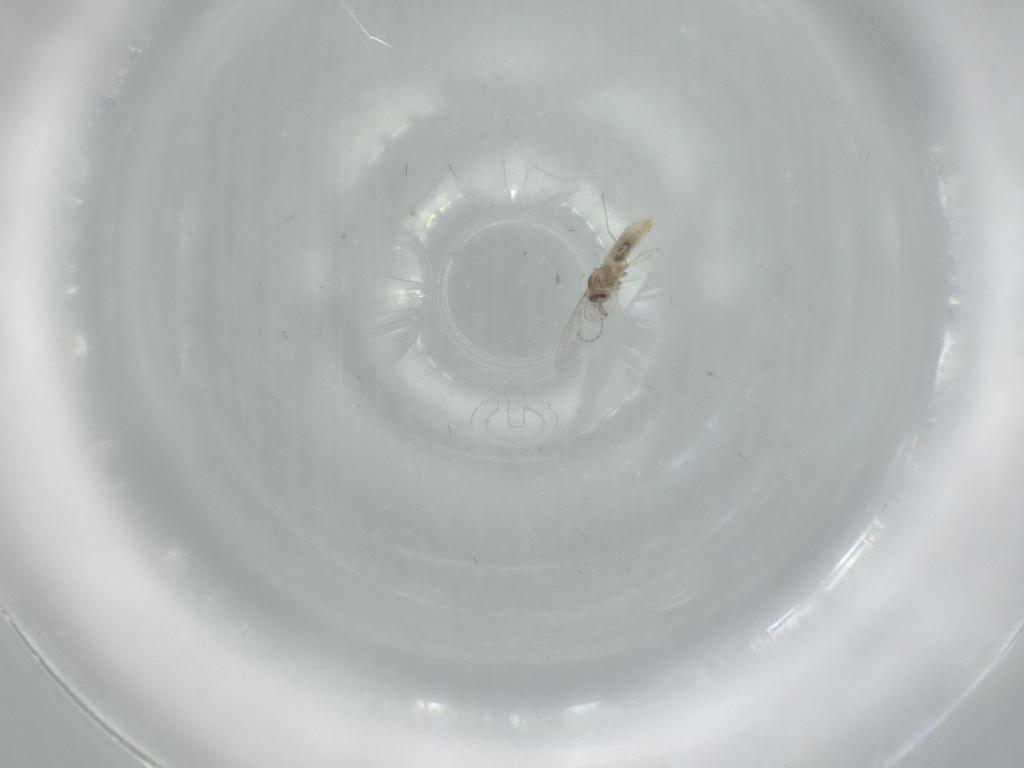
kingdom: Animalia
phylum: Arthropoda
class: Insecta
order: Diptera
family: Cecidomyiidae
